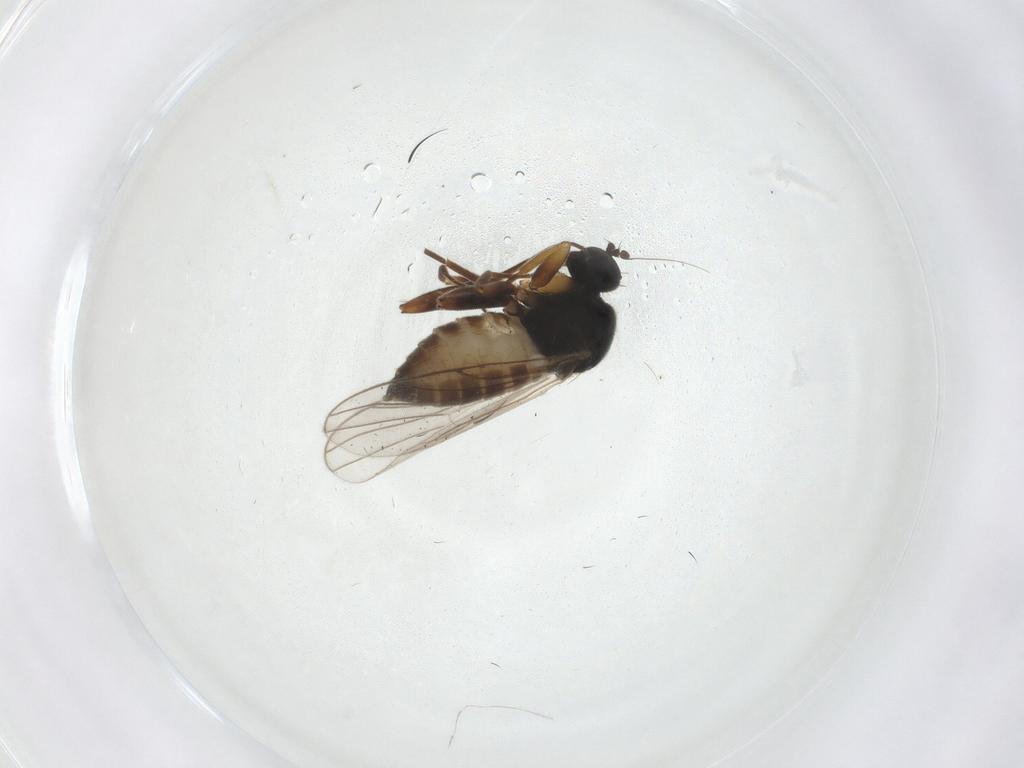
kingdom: Animalia
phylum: Arthropoda
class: Insecta
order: Diptera
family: Hybotidae
